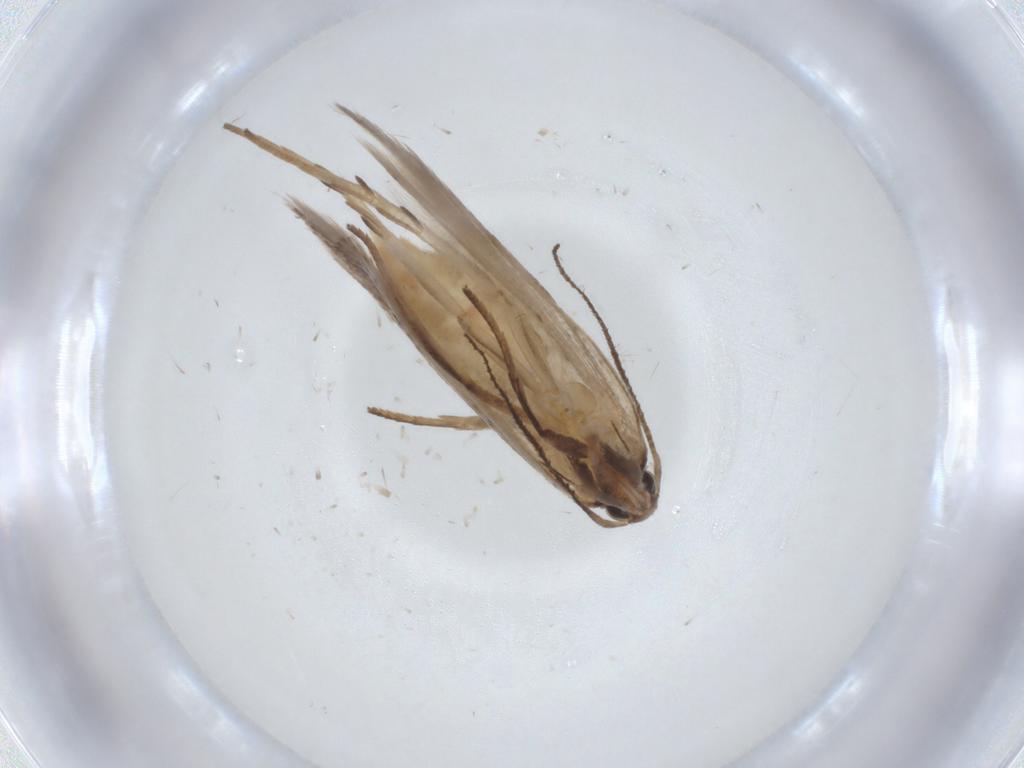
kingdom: Animalia
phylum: Arthropoda
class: Insecta
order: Lepidoptera
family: Gelechiidae
